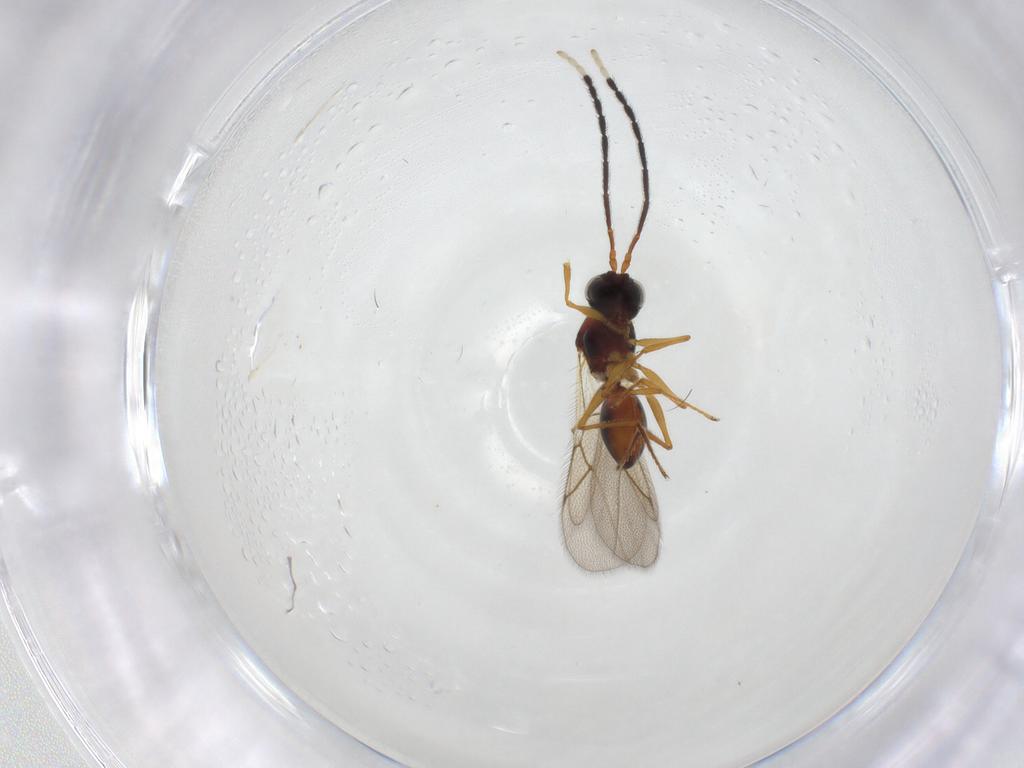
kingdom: Animalia
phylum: Arthropoda
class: Insecta
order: Hymenoptera
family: Figitidae
